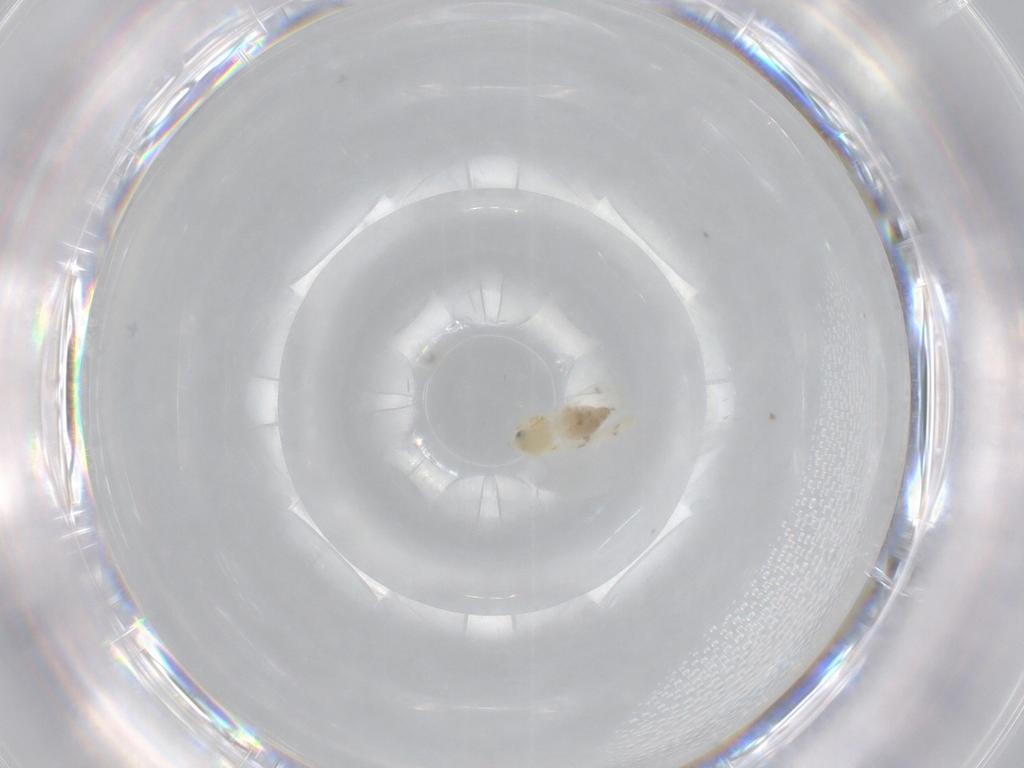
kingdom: Animalia
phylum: Arthropoda
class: Insecta
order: Hemiptera
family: Aleyrodidae
